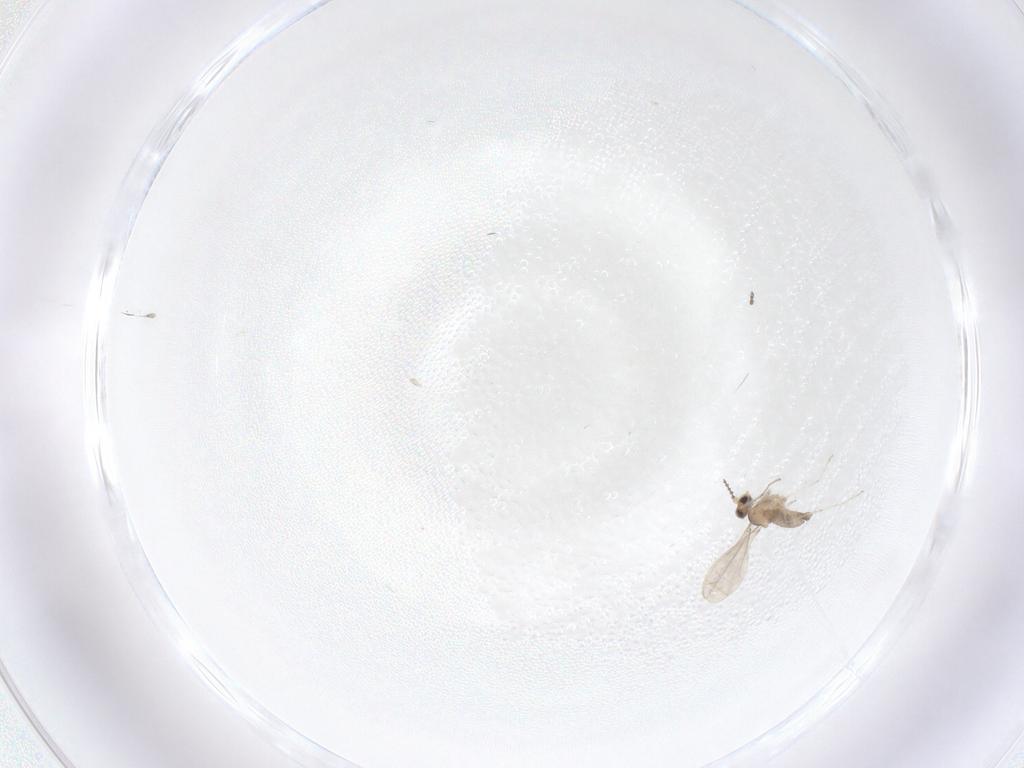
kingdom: Animalia
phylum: Arthropoda
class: Insecta
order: Diptera
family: Cecidomyiidae
